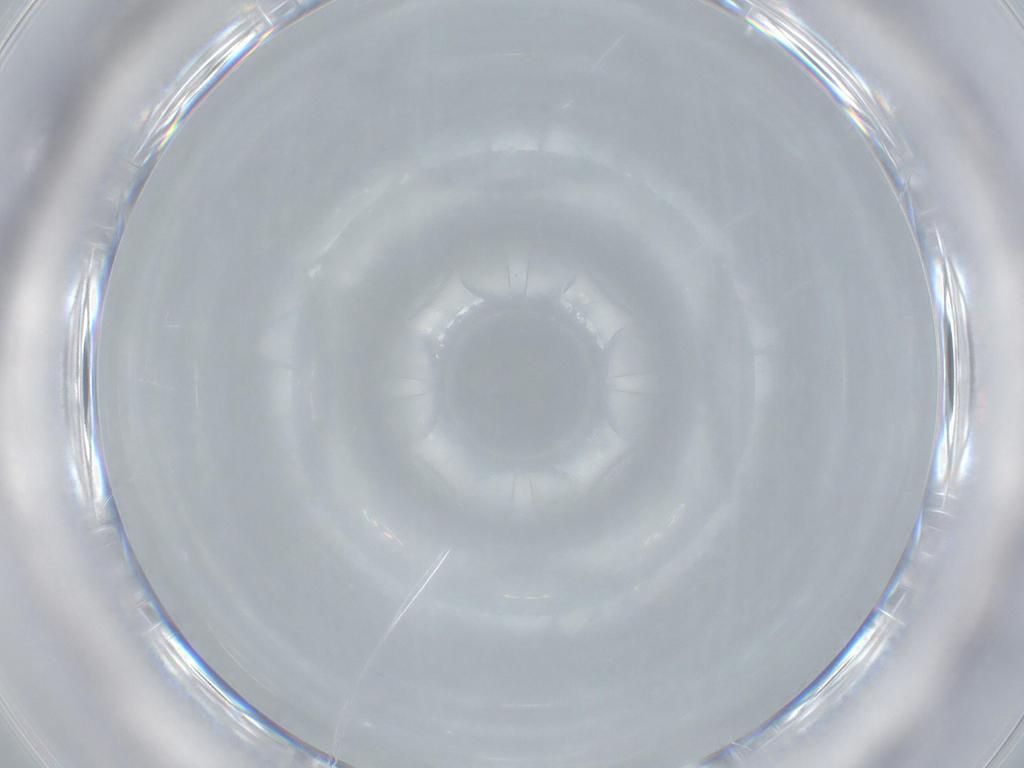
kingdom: Animalia
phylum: Arthropoda
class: Insecta
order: Diptera
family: Sciaridae
